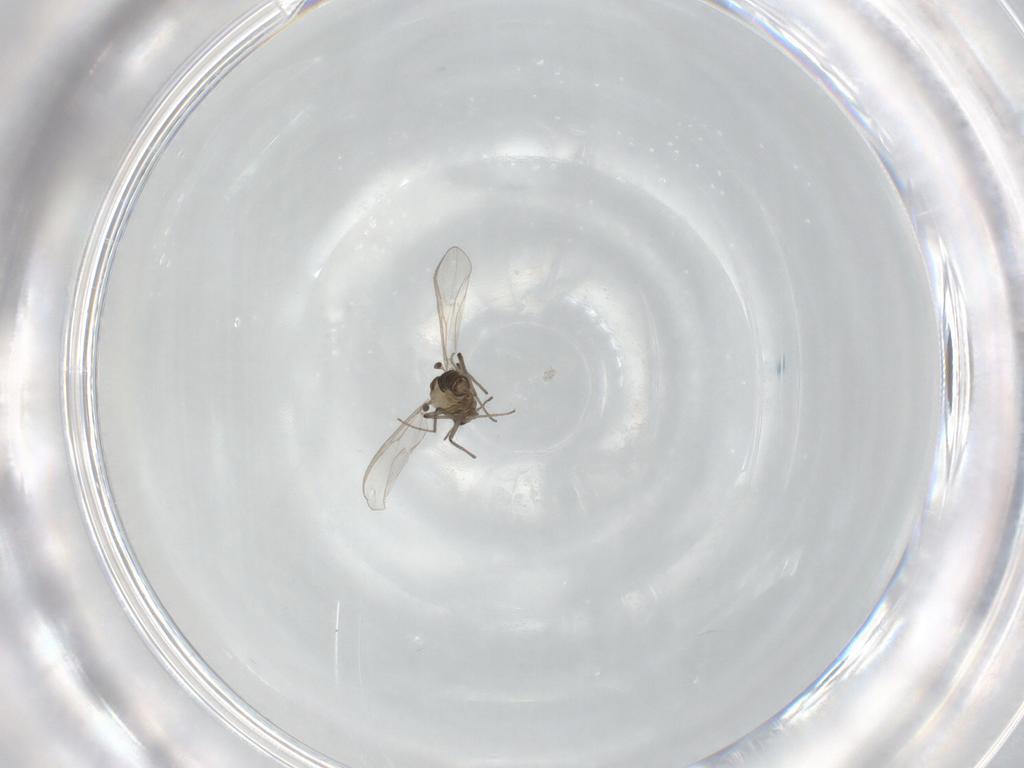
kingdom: Animalia
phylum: Arthropoda
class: Insecta
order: Diptera
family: Chironomidae
